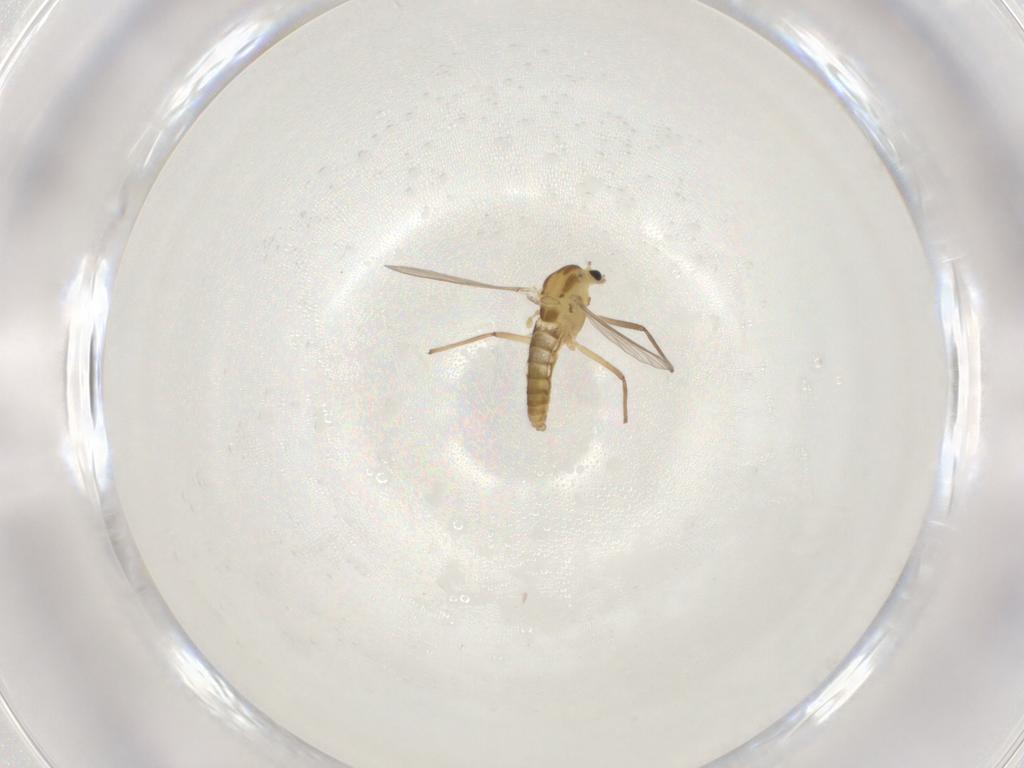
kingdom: Animalia
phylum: Arthropoda
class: Insecta
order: Diptera
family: Chironomidae
